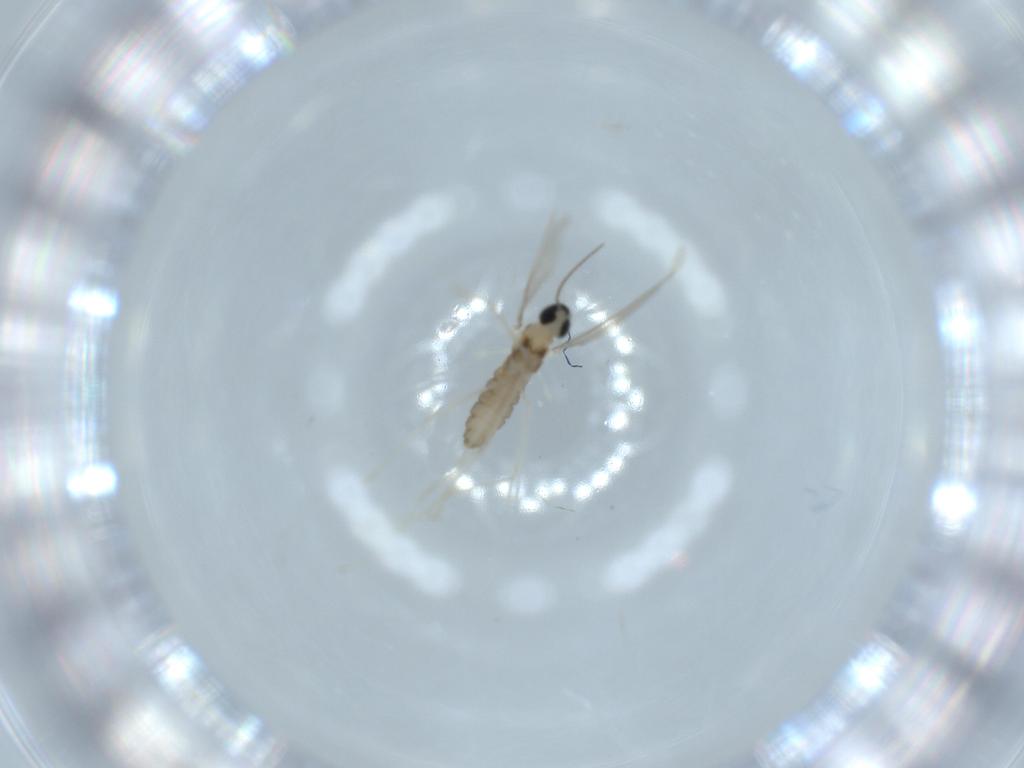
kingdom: Animalia
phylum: Arthropoda
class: Insecta
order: Diptera
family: Cecidomyiidae
